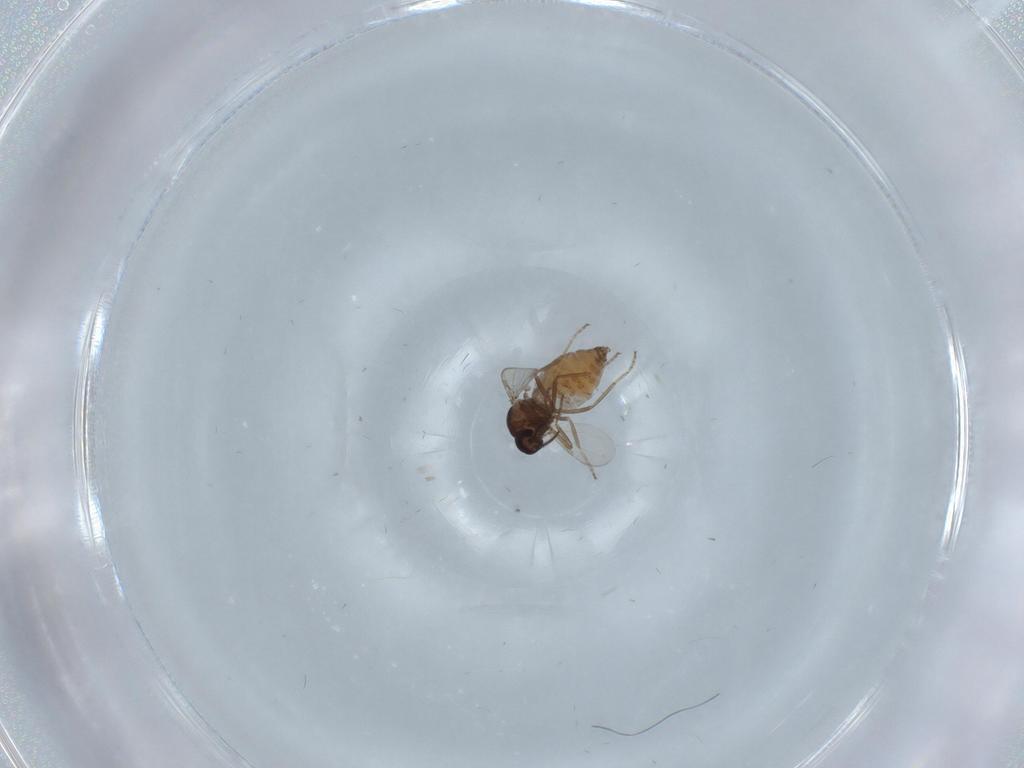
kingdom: Animalia
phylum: Arthropoda
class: Insecta
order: Diptera
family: Ceratopogonidae
